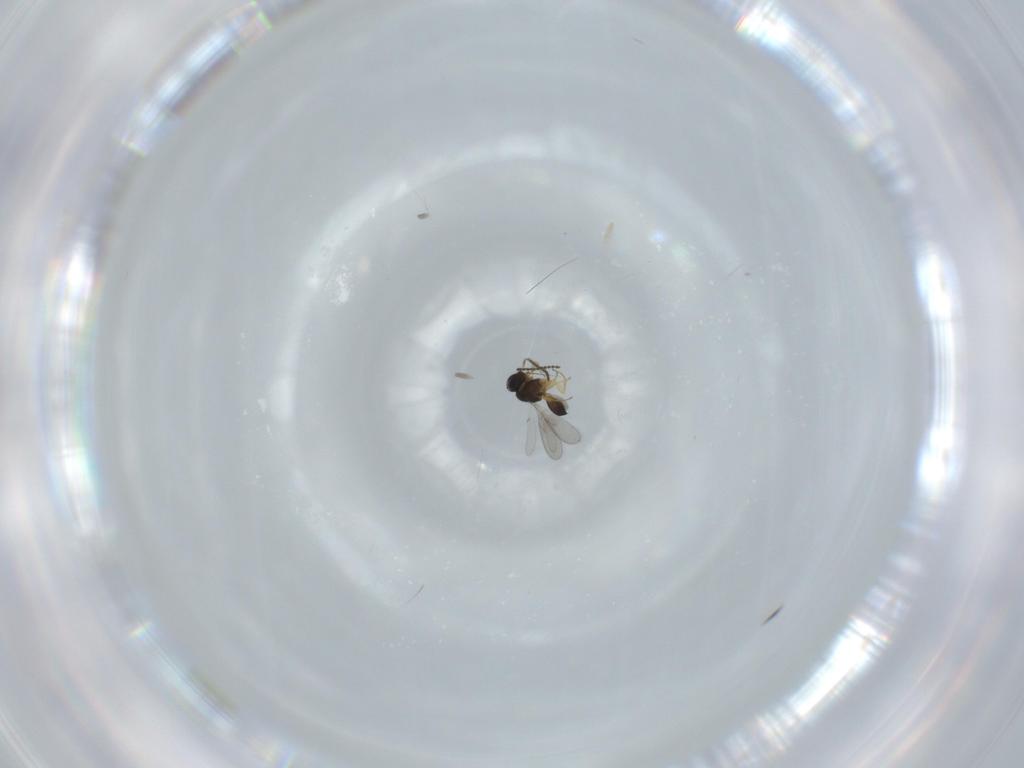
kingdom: Animalia
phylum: Arthropoda
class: Insecta
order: Hymenoptera
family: Scelionidae
